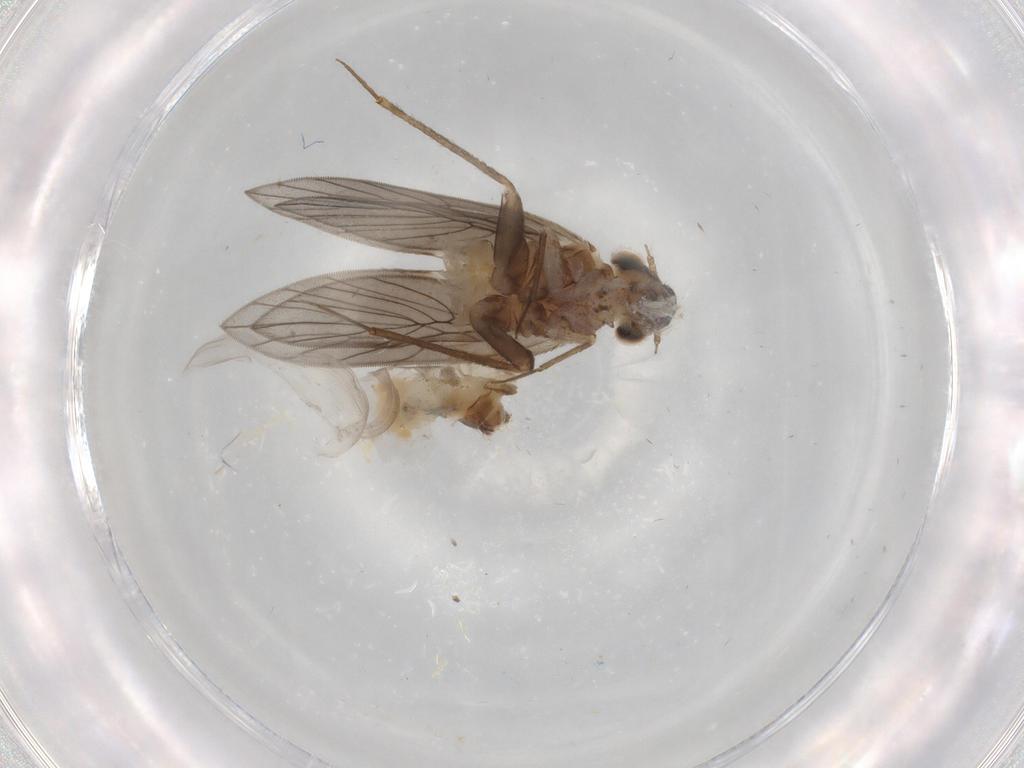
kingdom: Animalia
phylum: Arthropoda
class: Insecta
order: Psocodea
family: Lepidopsocidae
